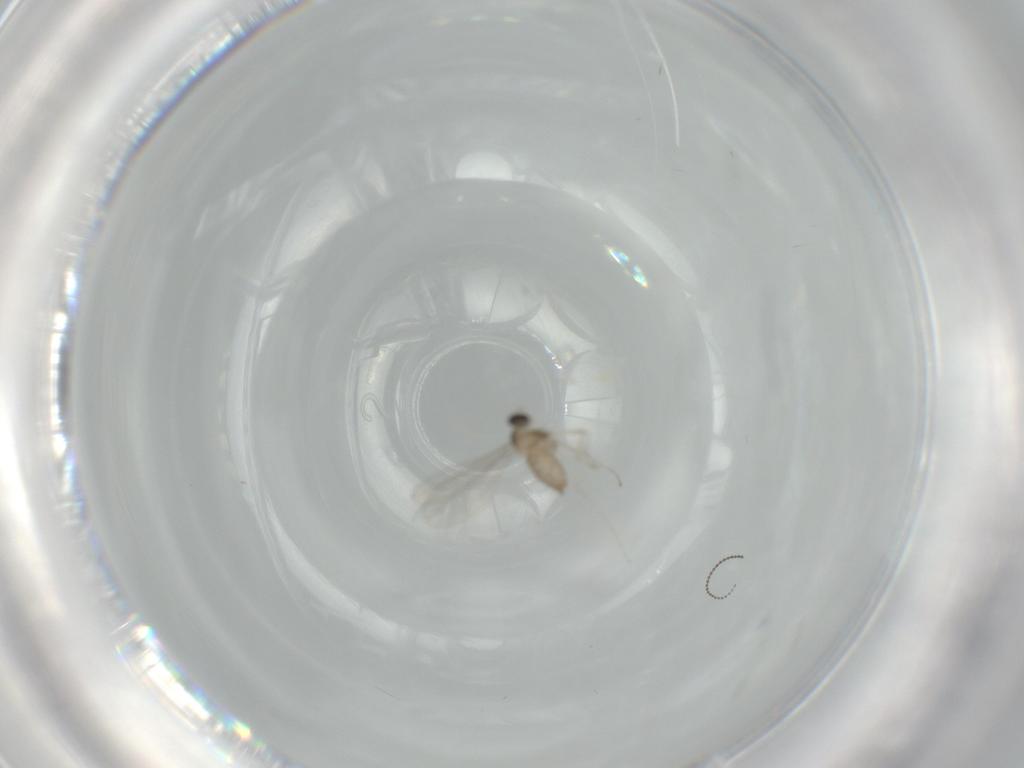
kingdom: Animalia
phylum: Arthropoda
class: Insecta
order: Diptera
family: Cecidomyiidae
